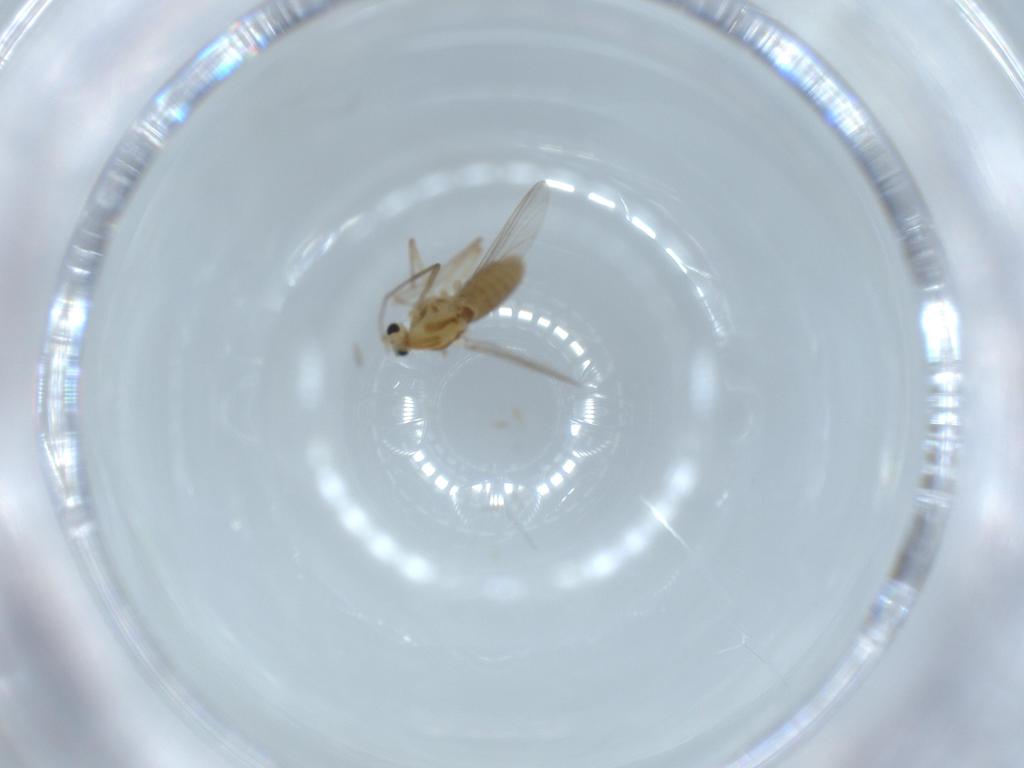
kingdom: Animalia
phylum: Arthropoda
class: Insecta
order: Diptera
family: Chironomidae
